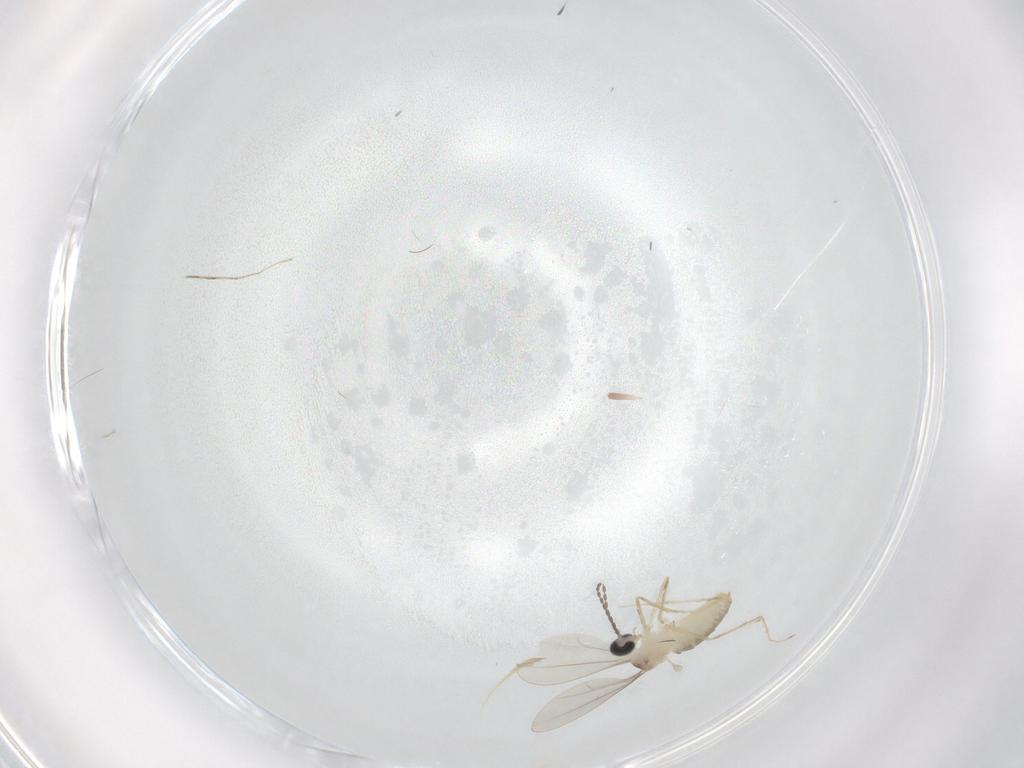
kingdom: Animalia
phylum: Arthropoda
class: Insecta
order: Diptera
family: Cecidomyiidae
